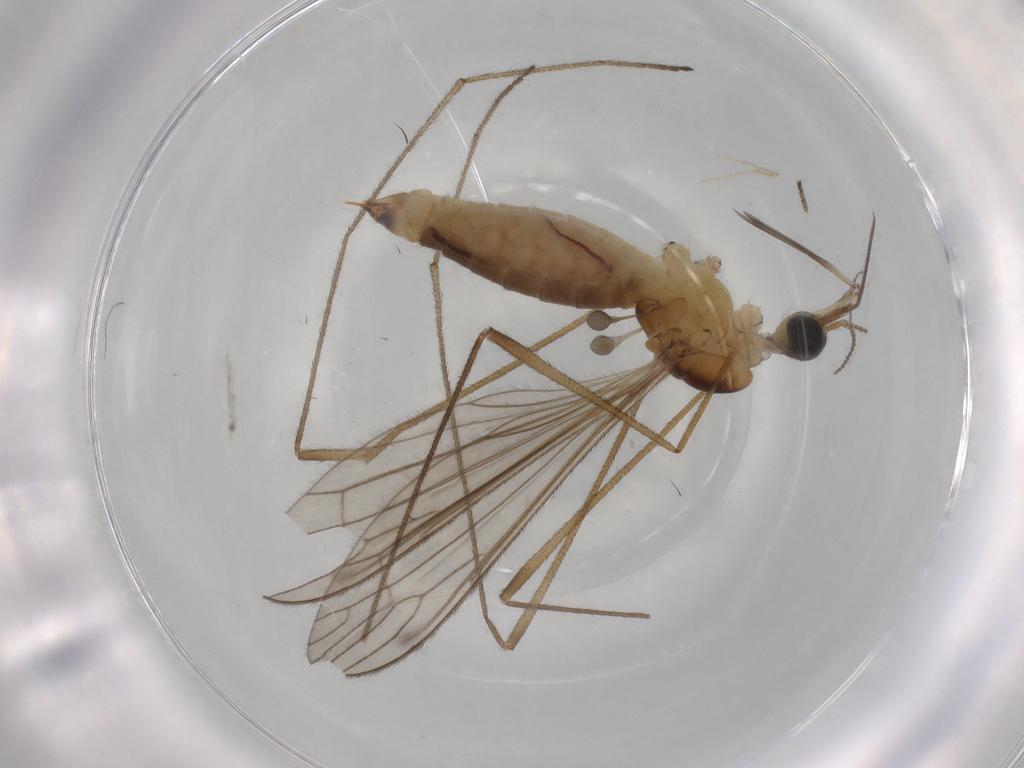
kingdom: Animalia
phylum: Arthropoda
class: Insecta
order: Diptera
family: Limoniidae
